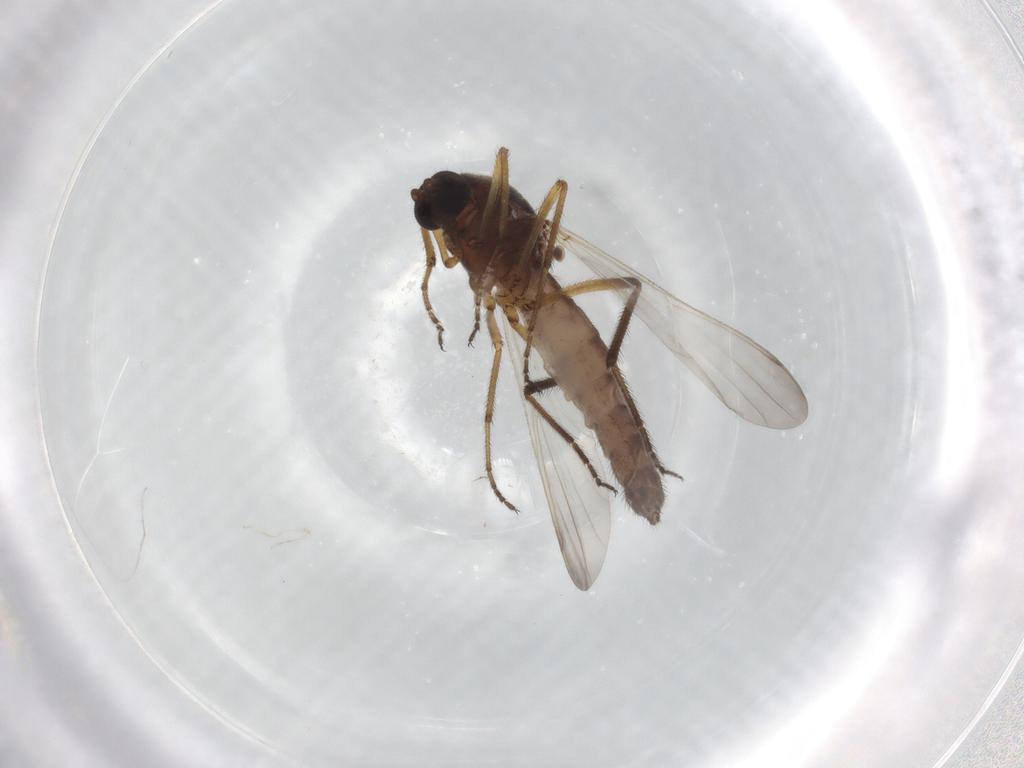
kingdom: Animalia
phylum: Arthropoda
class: Insecta
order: Diptera
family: Ceratopogonidae
